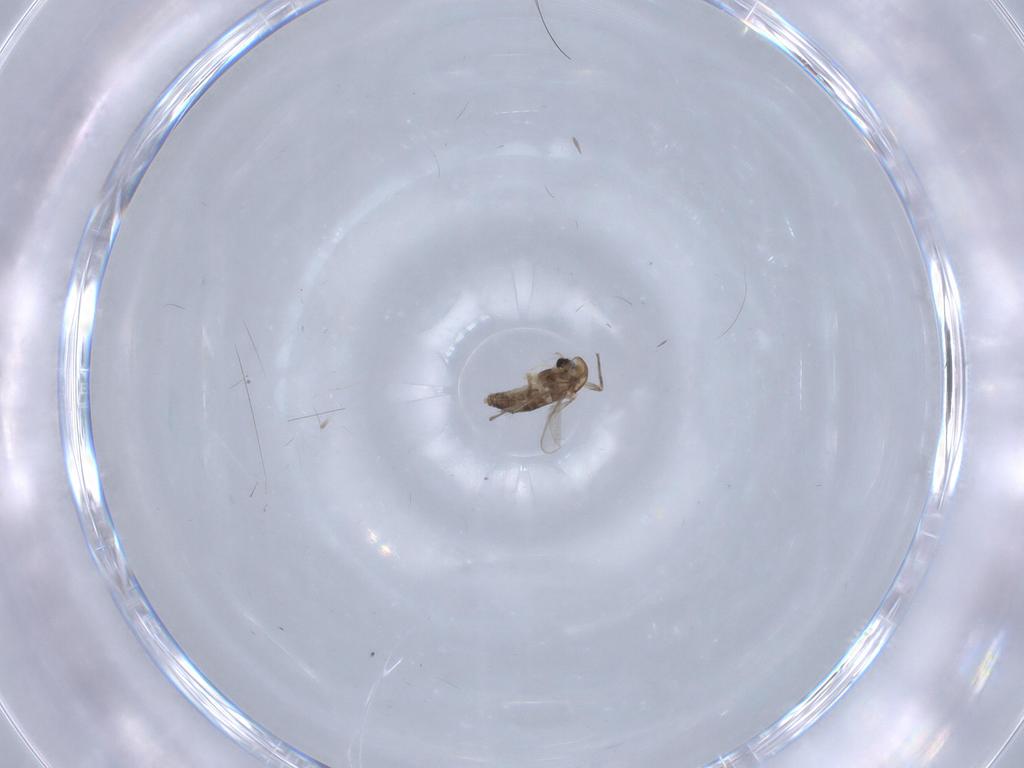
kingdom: Animalia
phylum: Arthropoda
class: Insecta
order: Diptera
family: Chironomidae
